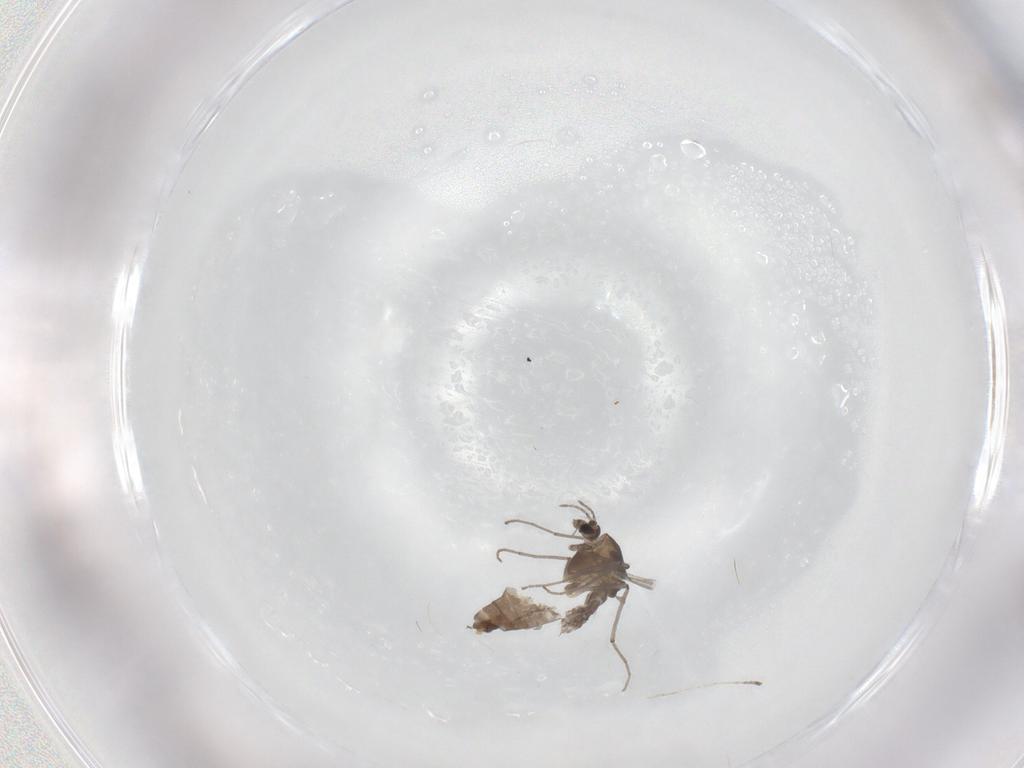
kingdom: Animalia
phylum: Arthropoda
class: Insecta
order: Diptera
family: Chironomidae
